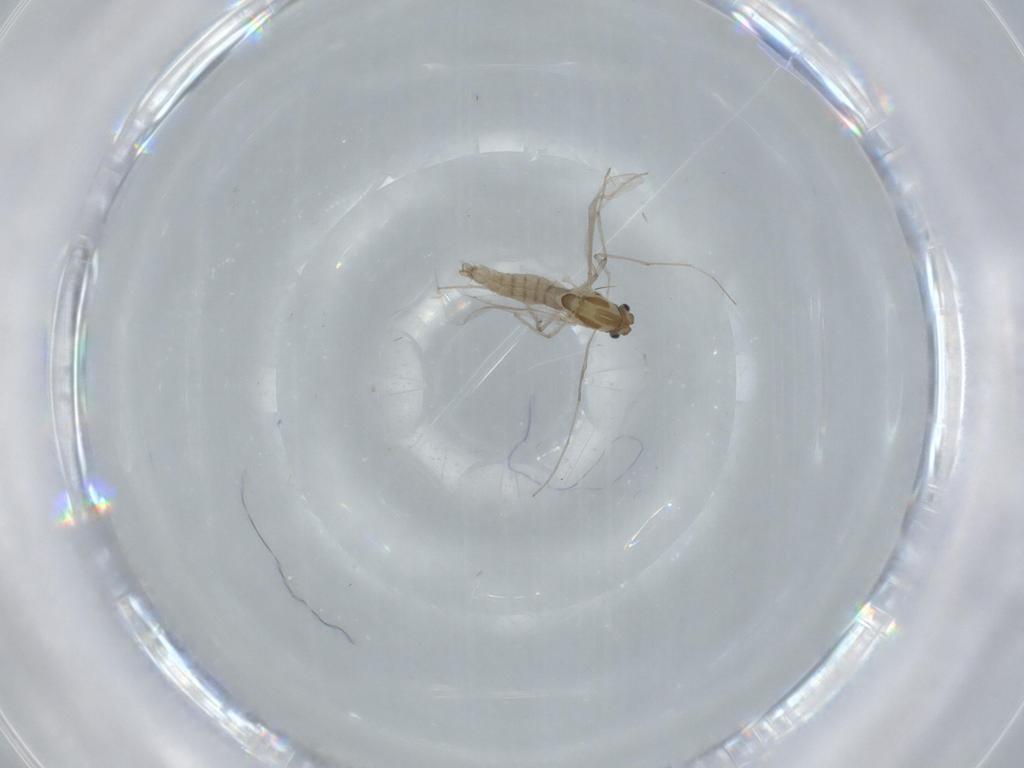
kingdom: Animalia
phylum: Arthropoda
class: Insecta
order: Diptera
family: Chironomidae
